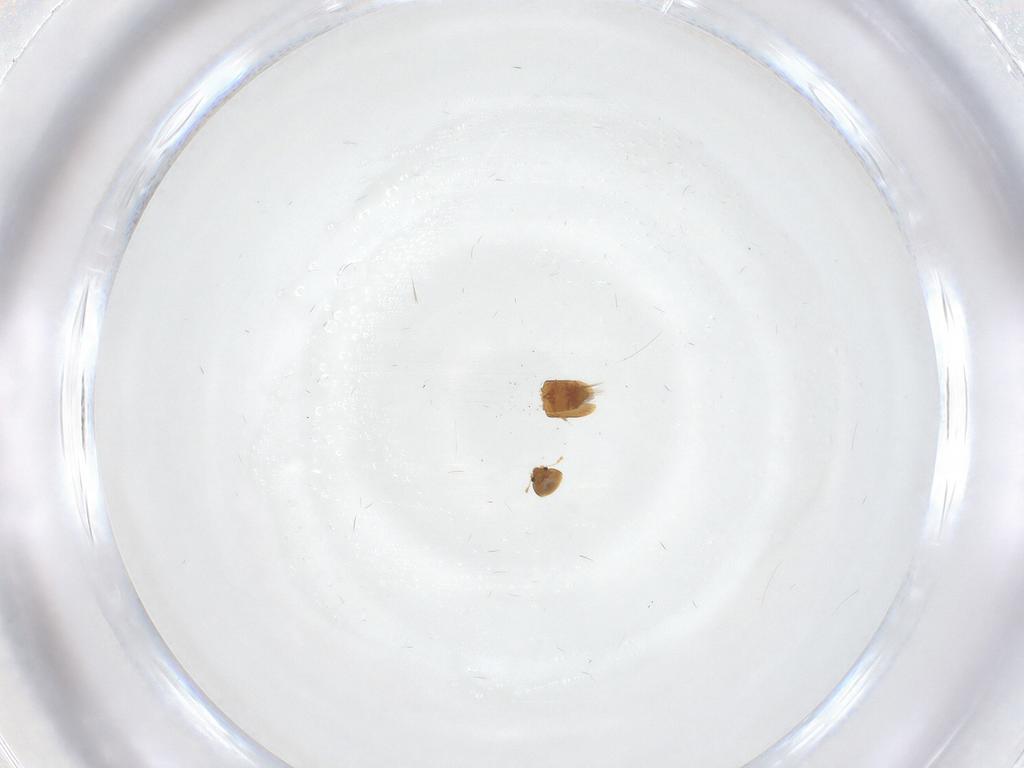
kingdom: Animalia
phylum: Arthropoda
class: Insecta
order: Coleoptera
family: Ptiliidae
